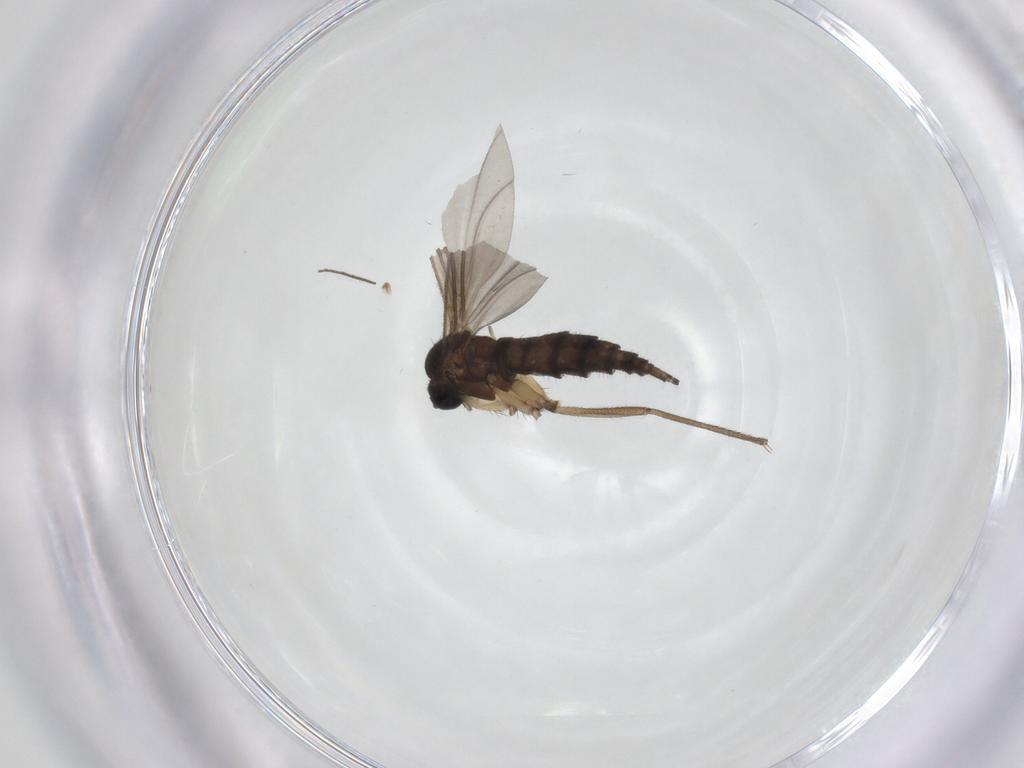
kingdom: Animalia
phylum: Arthropoda
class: Insecta
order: Diptera
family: Sciaridae
